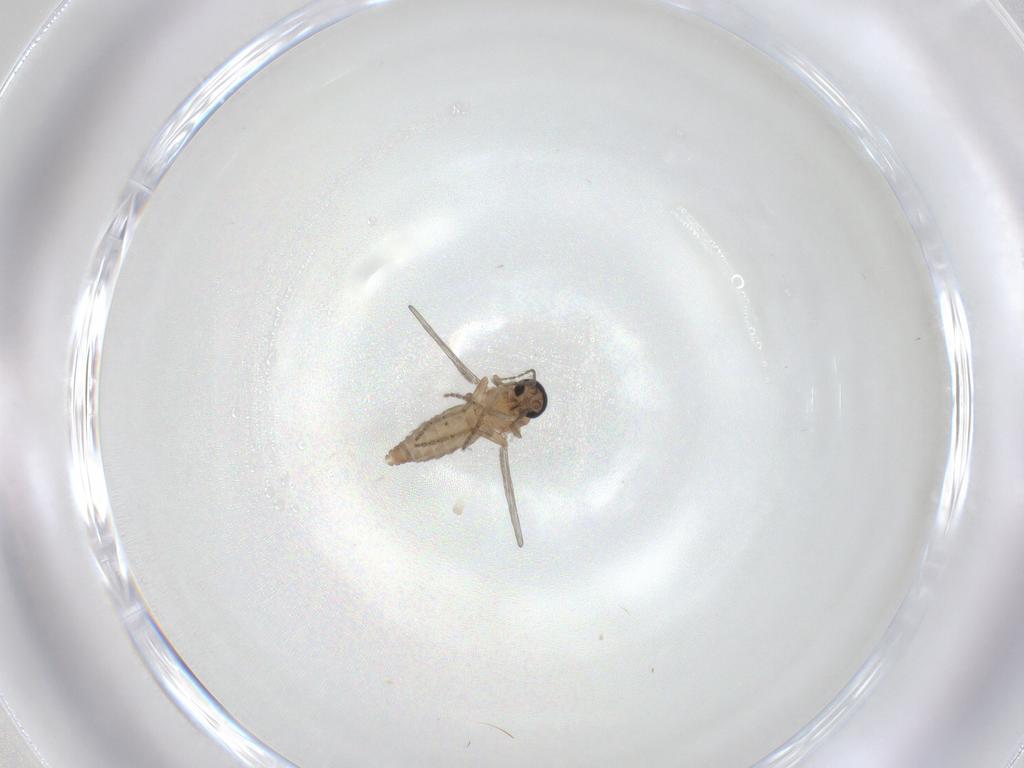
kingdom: Animalia
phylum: Arthropoda
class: Insecta
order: Diptera
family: Ceratopogonidae
